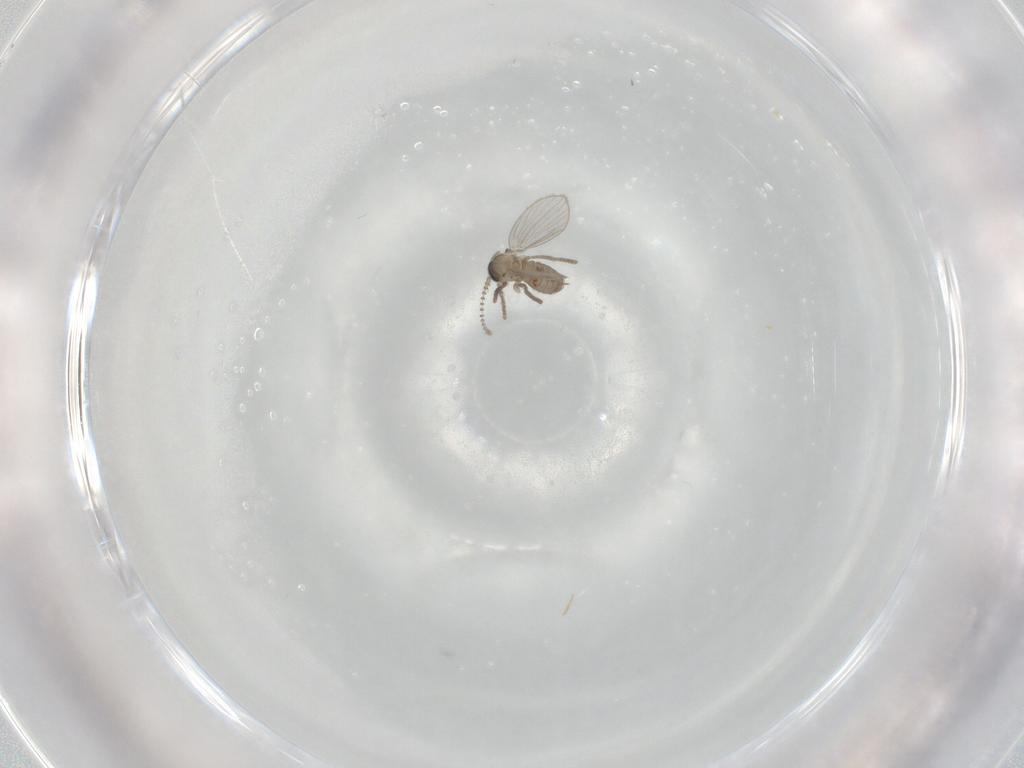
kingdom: Animalia
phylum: Arthropoda
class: Insecta
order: Diptera
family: Psychodidae
